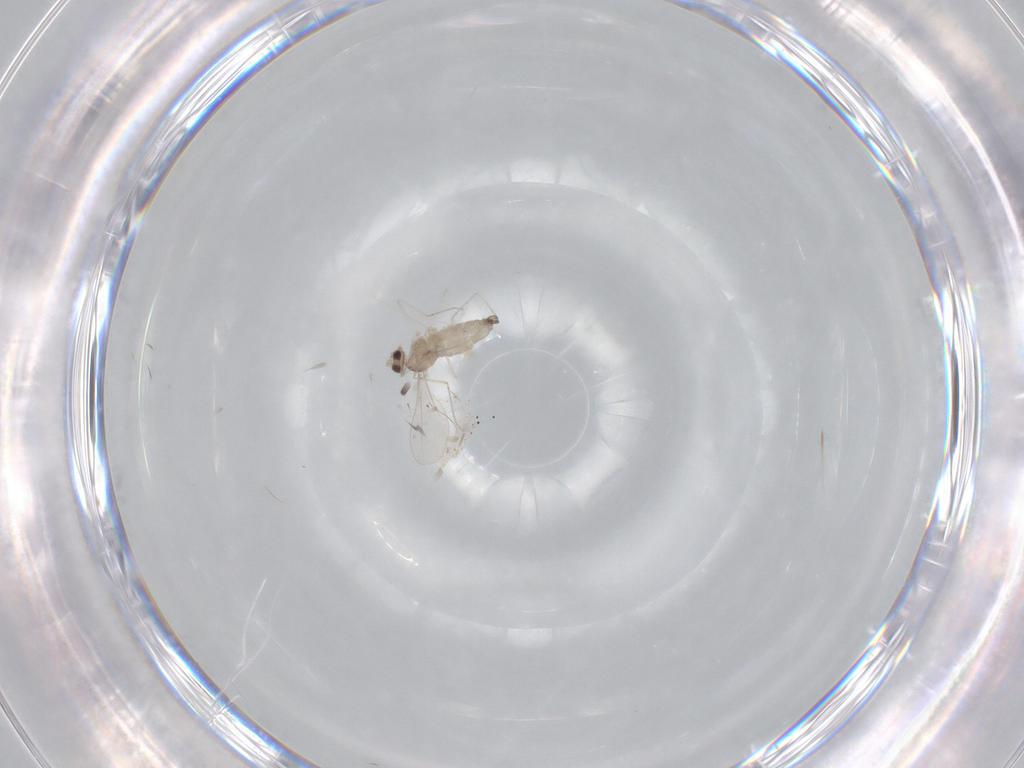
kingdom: Animalia
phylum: Arthropoda
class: Insecta
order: Diptera
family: Cecidomyiidae
